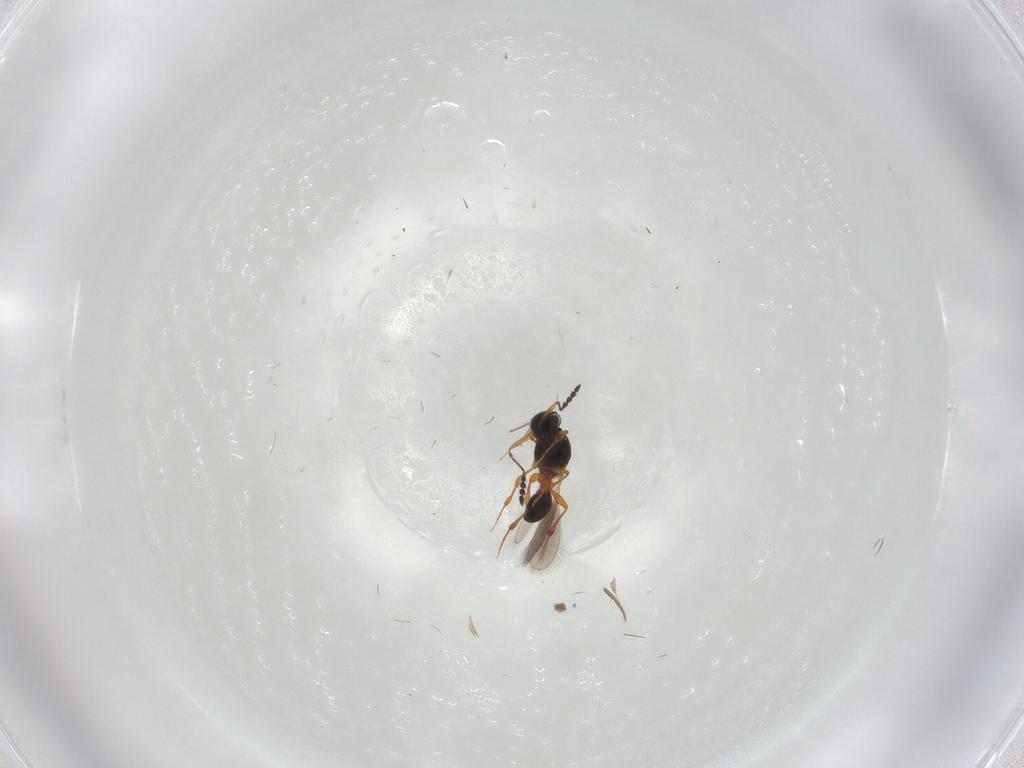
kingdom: Animalia
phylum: Arthropoda
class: Insecta
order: Hymenoptera
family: Platygastridae
